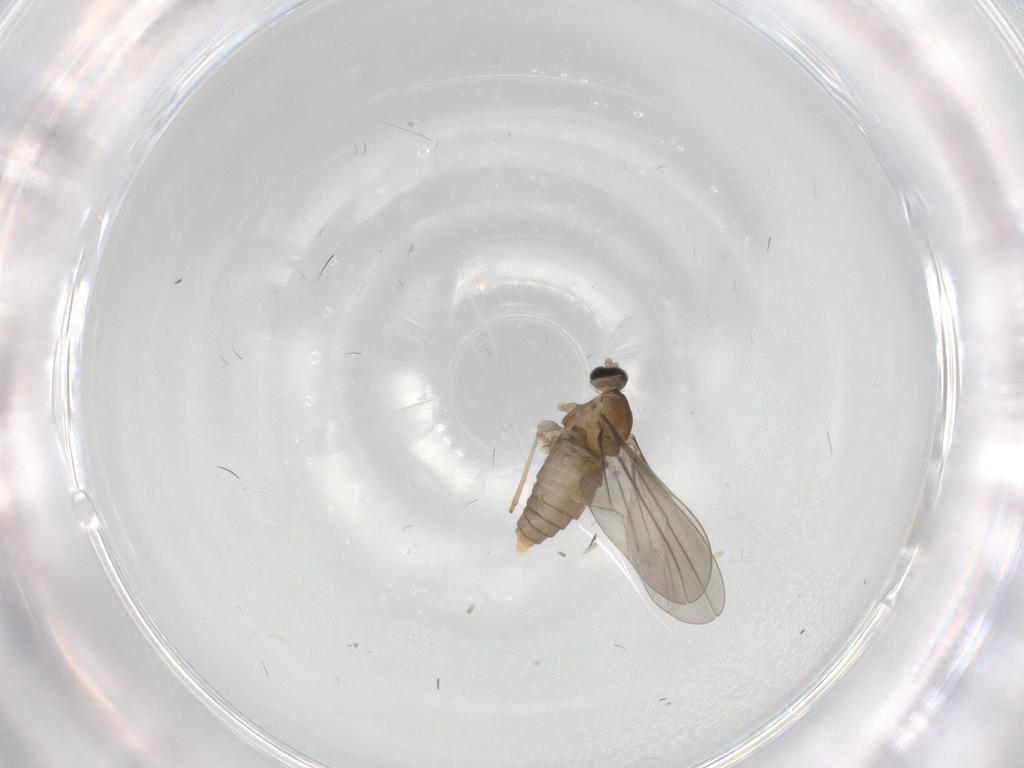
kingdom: Animalia
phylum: Arthropoda
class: Insecta
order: Diptera
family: Cecidomyiidae
